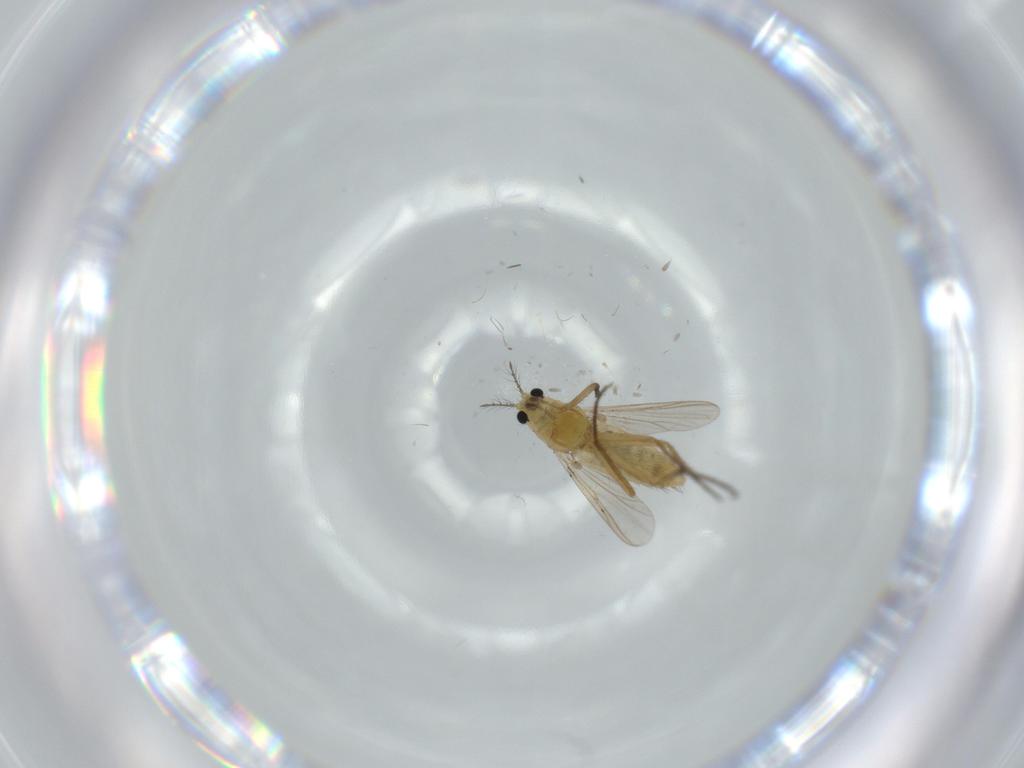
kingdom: Animalia
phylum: Arthropoda
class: Insecta
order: Diptera
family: Chironomidae
